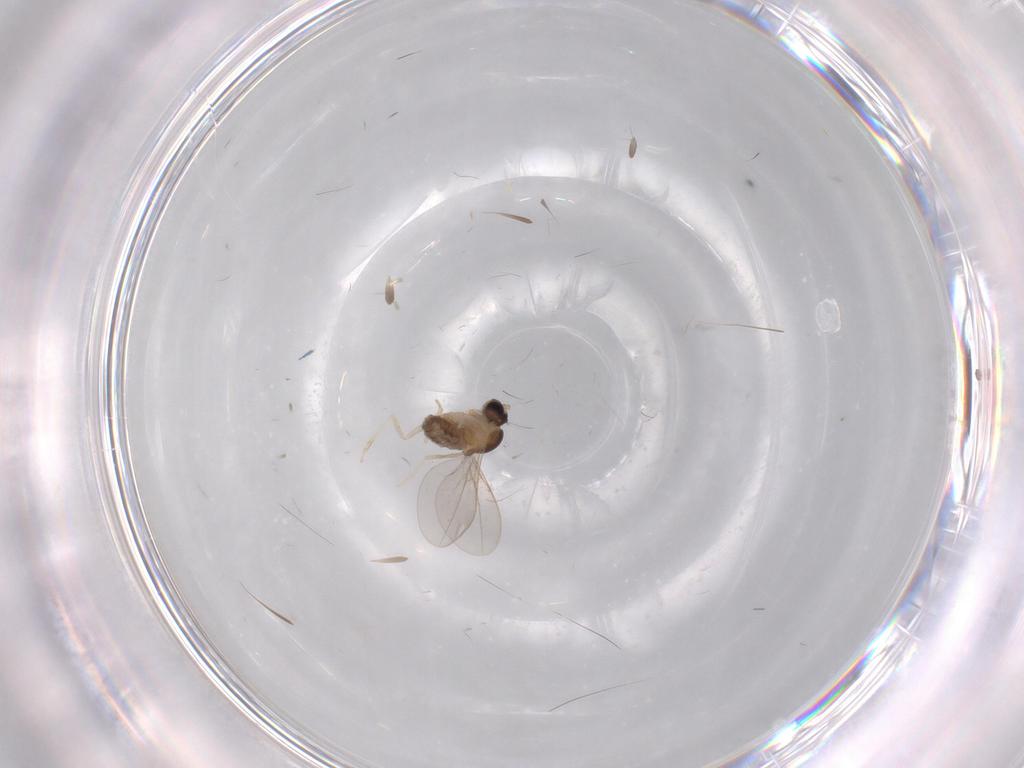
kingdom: Animalia
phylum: Arthropoda
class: Insecta
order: Diptera
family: Cecidomyiidae
